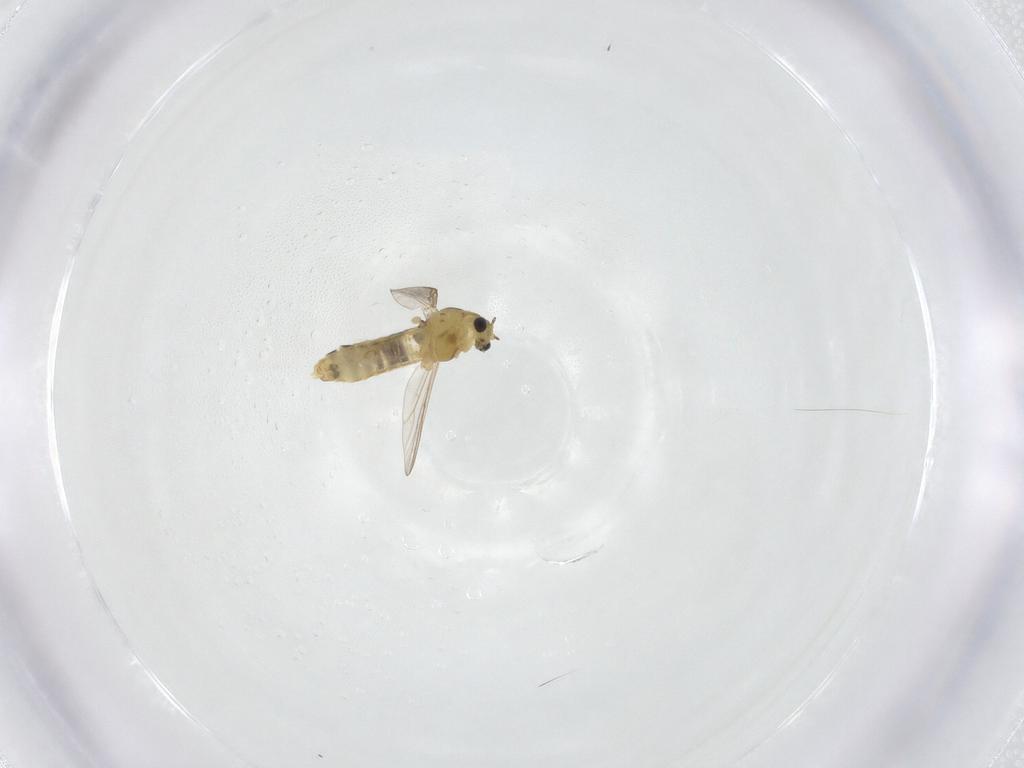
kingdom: Animalia
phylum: Arthropoda
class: Insecta
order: Diptera
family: Chironomidae
